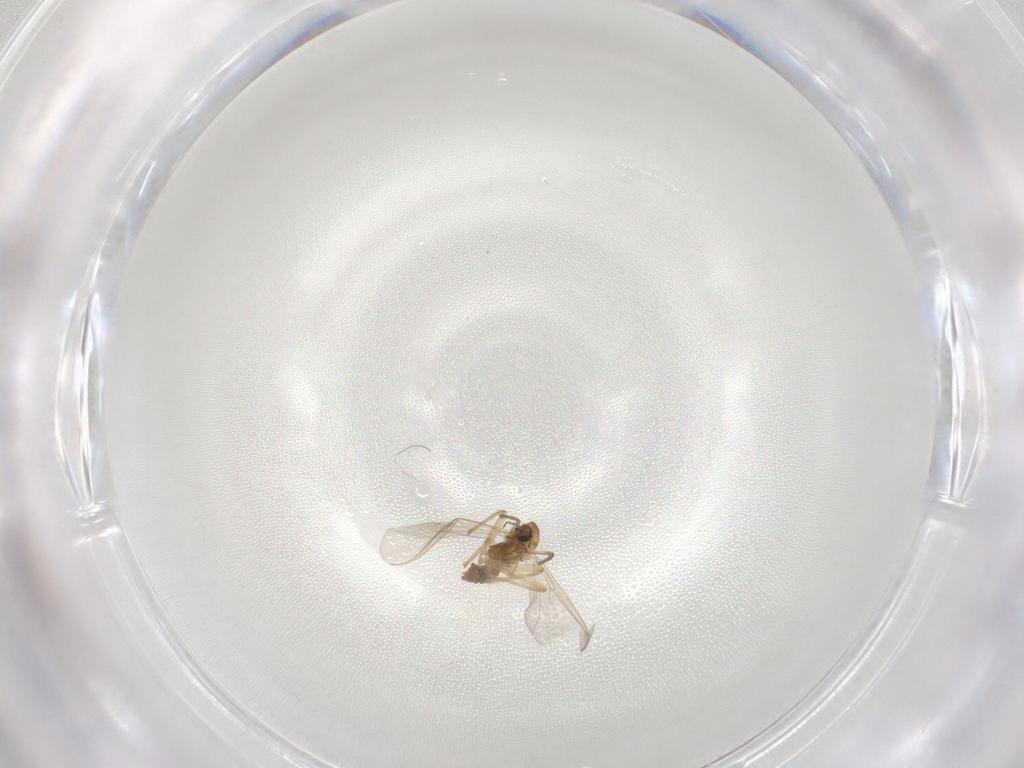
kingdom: Animalia
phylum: Arthropoda
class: Insecta
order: Diptera
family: Chironomidae
